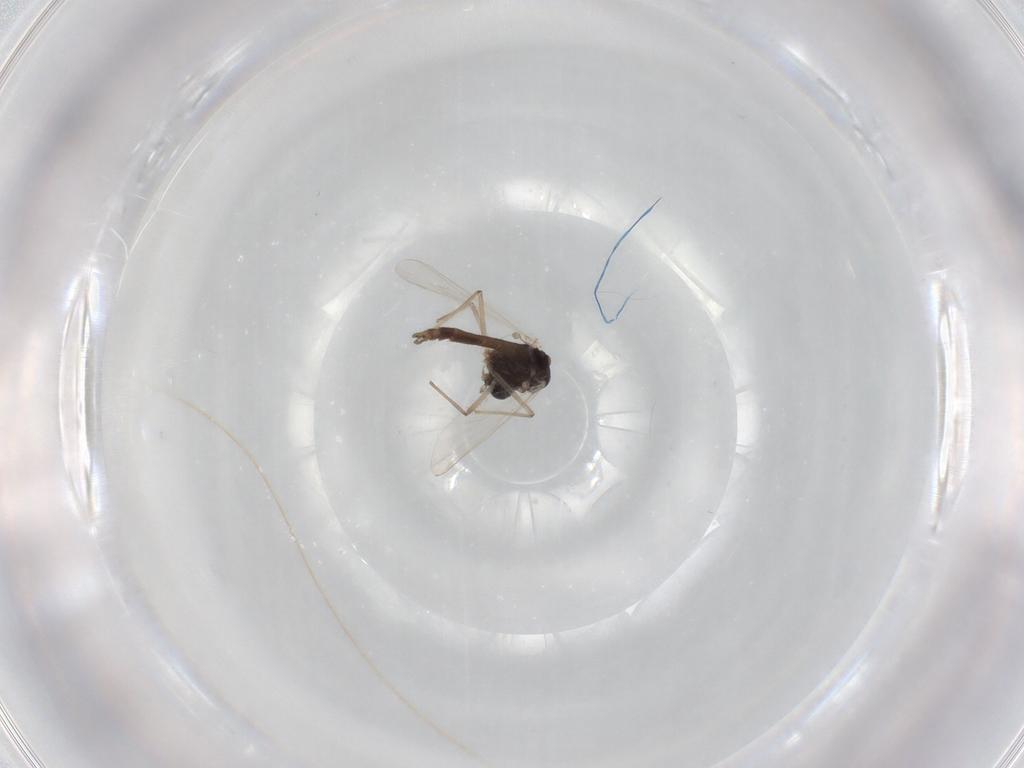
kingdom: Animalia
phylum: Arthropoda
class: Insecta
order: Diptera
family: Chironomidae
